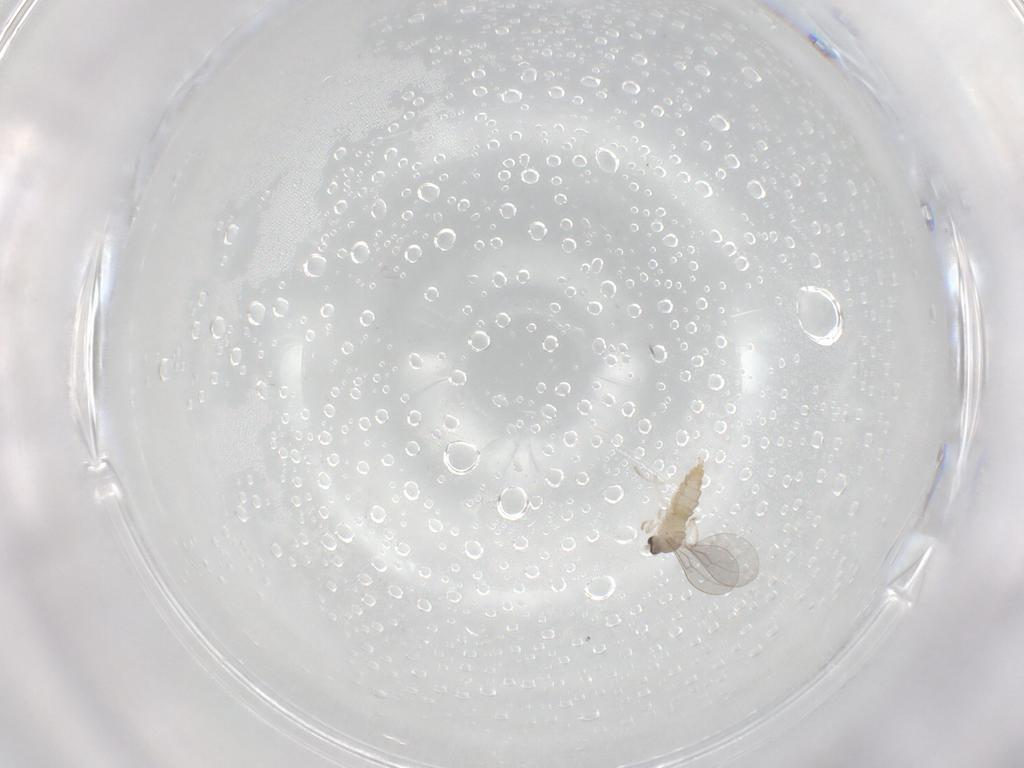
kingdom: Animalia
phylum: Arthropoda
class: Insecta
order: Diptera
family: Cecidomyiidae
